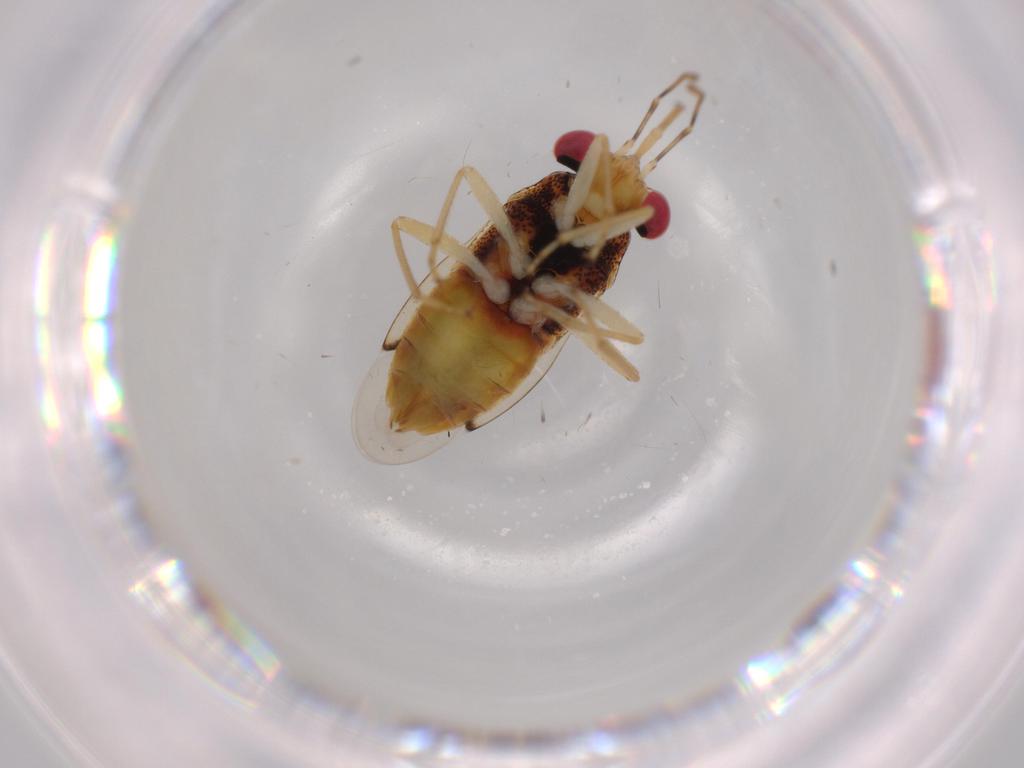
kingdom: Animalia
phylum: Arthropoda
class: Insecta
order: Hemiptera
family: Geocoridae
